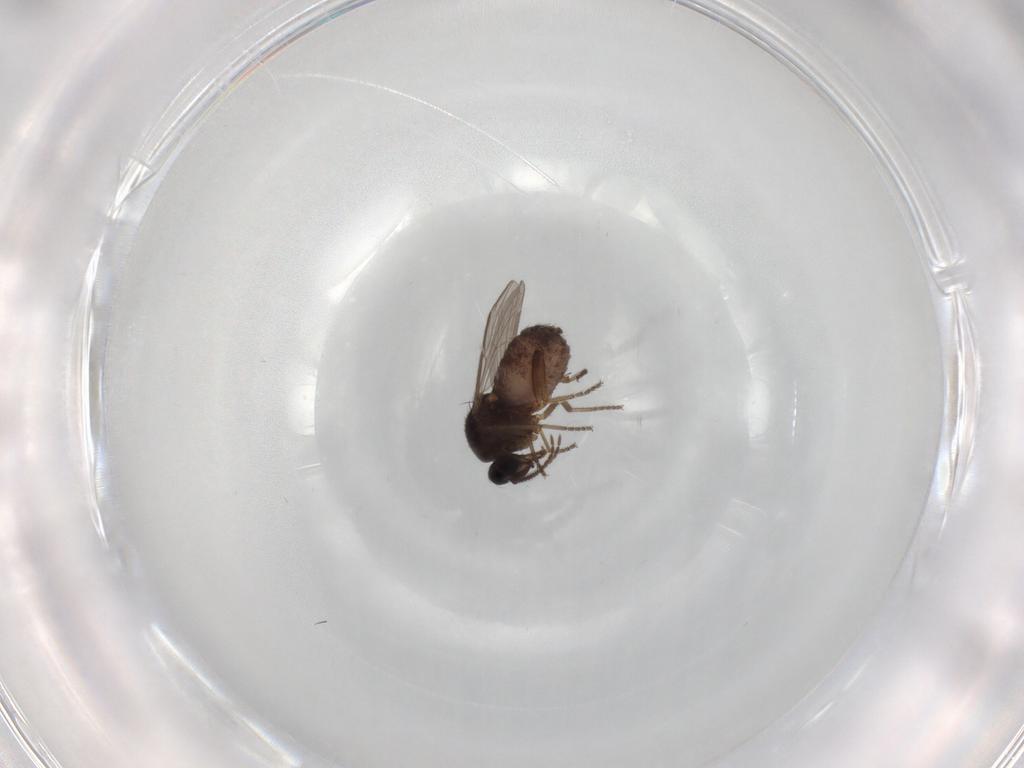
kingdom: Animalia
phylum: Arthropoda
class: Insecta
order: Diptera
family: Ceratopogonidae
